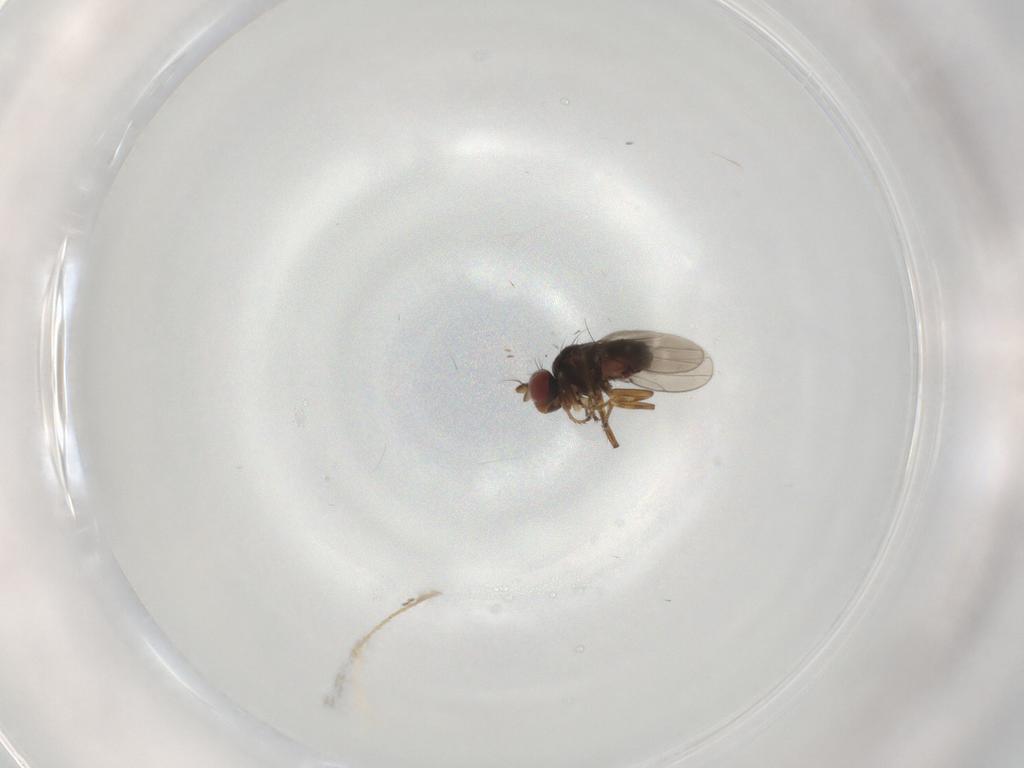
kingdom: Animalia
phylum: Arthropoda
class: Insecta
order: Diptera
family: Ephydridae
